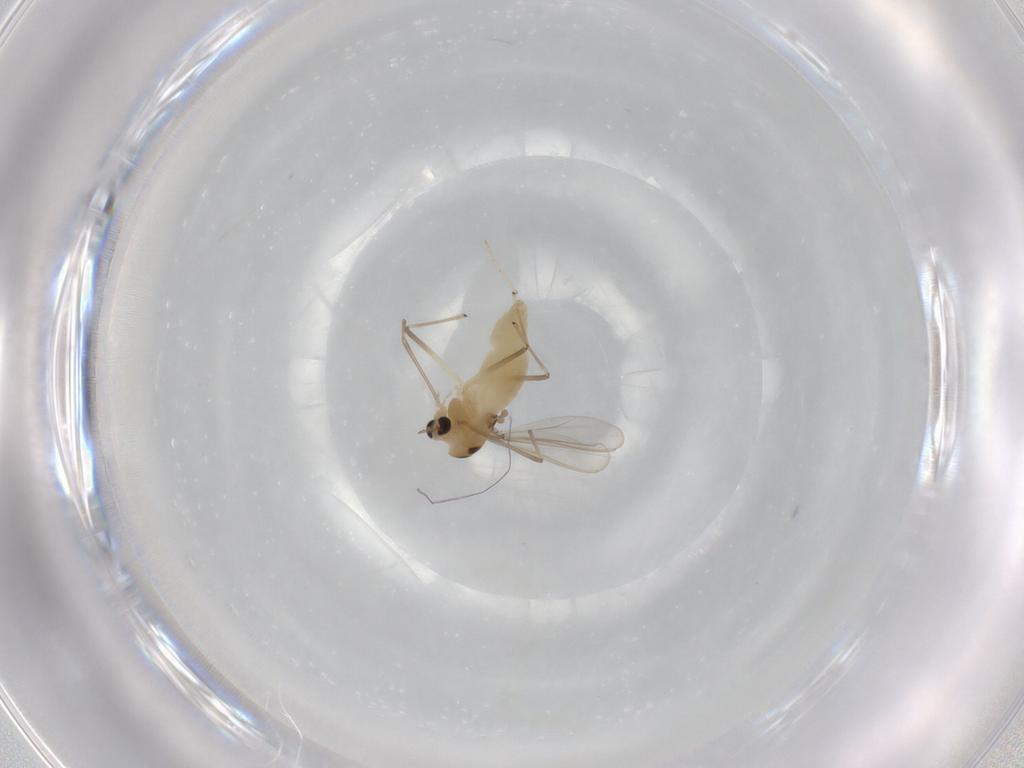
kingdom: Animalia
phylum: Arthropoda
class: Insecta
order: Diptera
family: Chironomidae
